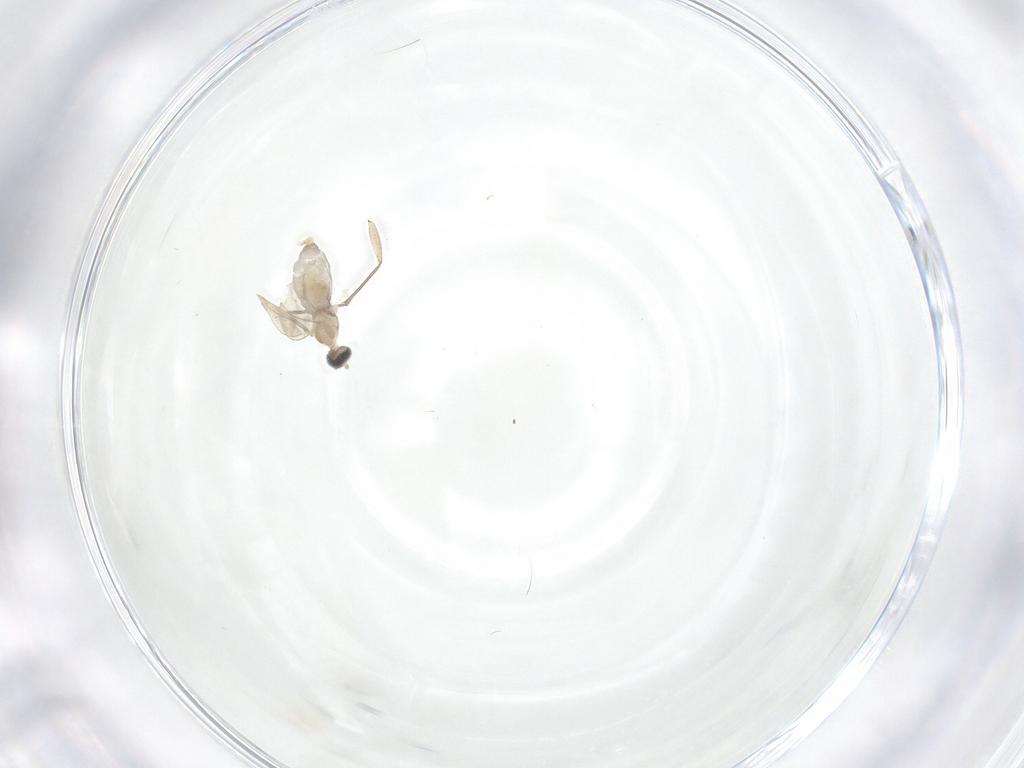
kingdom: Animalia
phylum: Arthropoda
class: Insecta
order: Diptera
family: Cecidomyiidae
